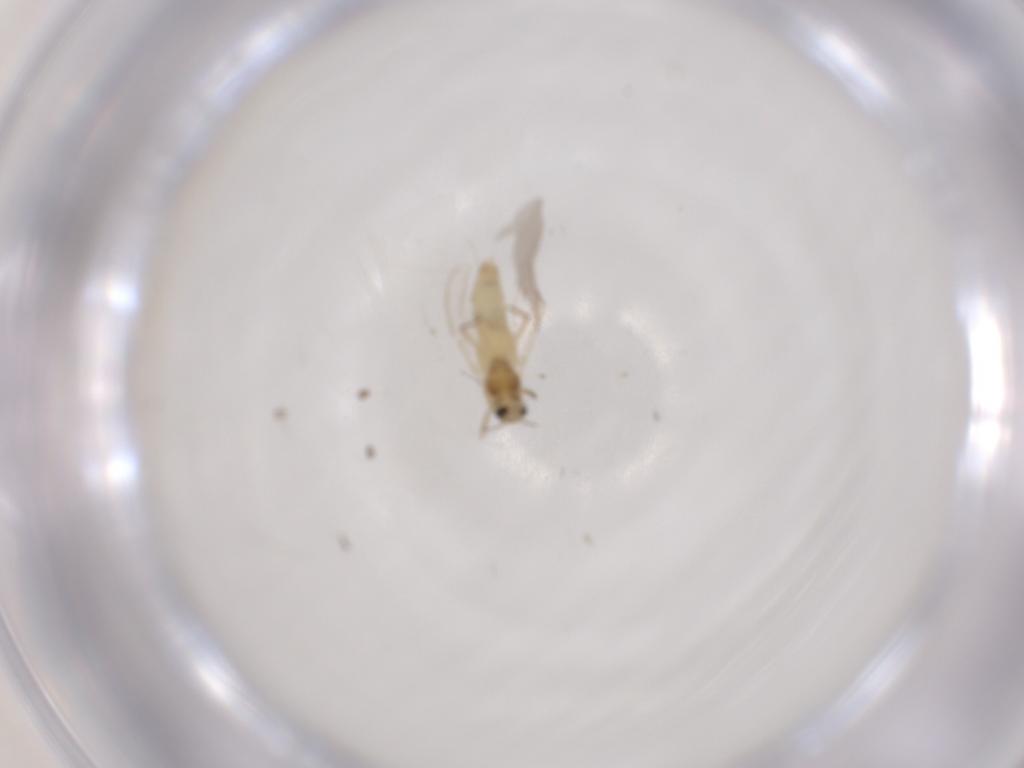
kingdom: Animalia
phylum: Arthropoda
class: Insecta
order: Diptera
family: Chironomidae
